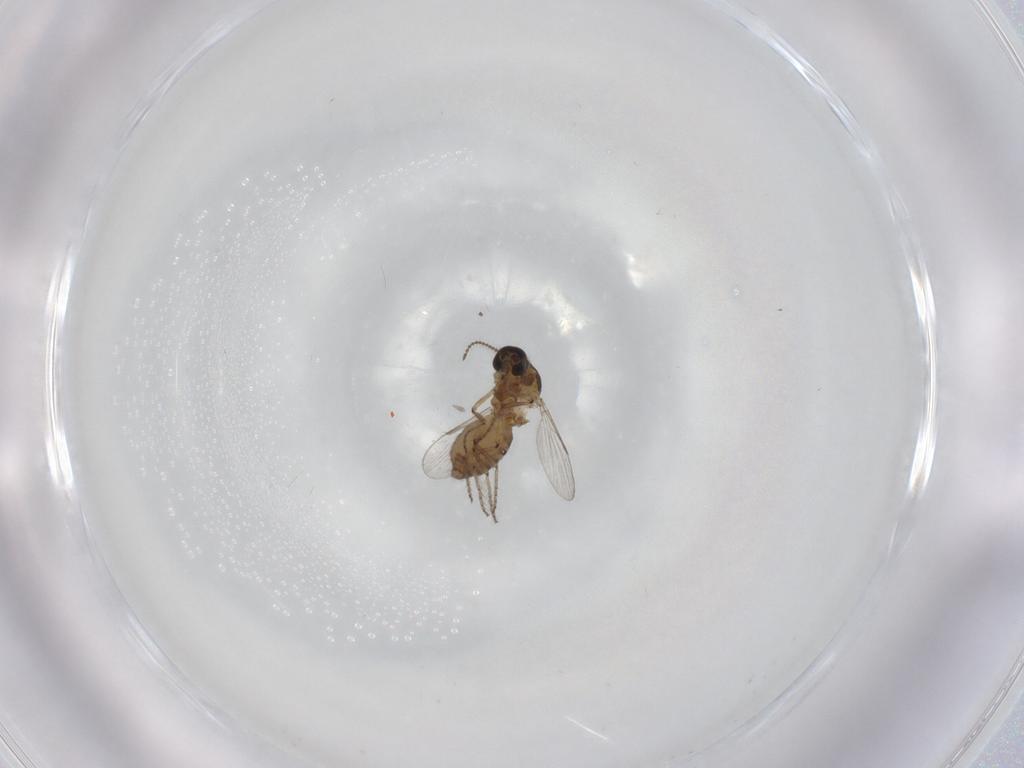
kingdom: Animalia
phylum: Arthropoda
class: Insecta
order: Diptera
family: Ceratopogonidae
